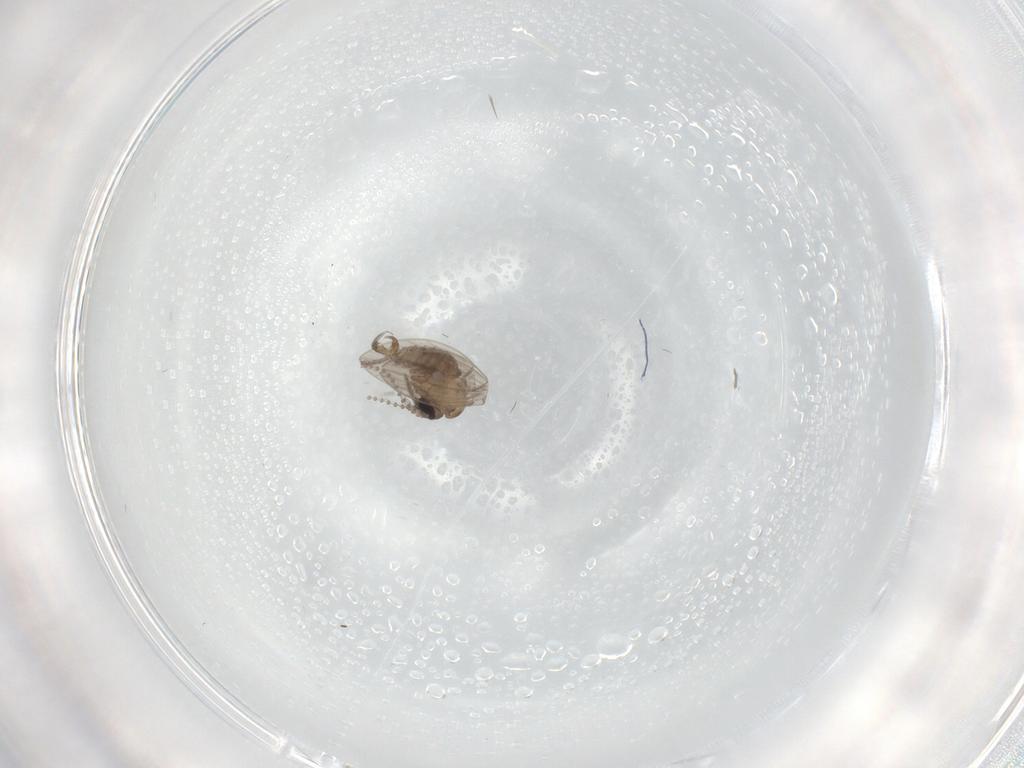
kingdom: Animalia
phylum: Arthropoda
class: Insecta
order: Diptera
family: Psychodidae
